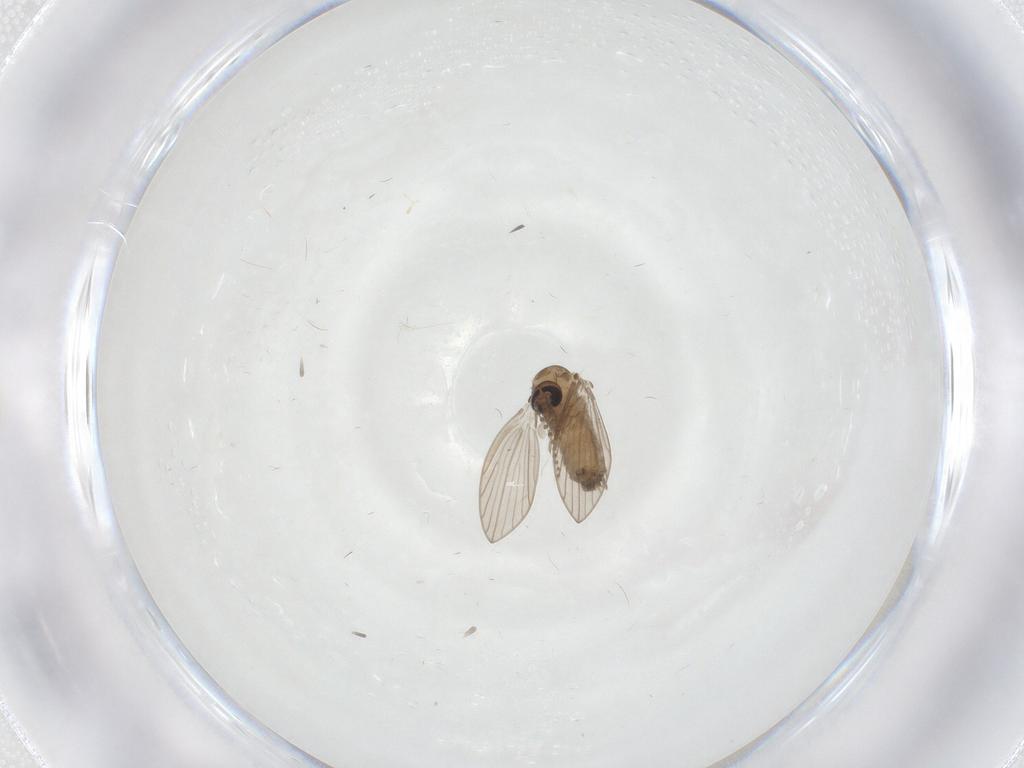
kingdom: Animalia
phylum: Arthropoda
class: Insecta
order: Diptera
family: Psychodidae
